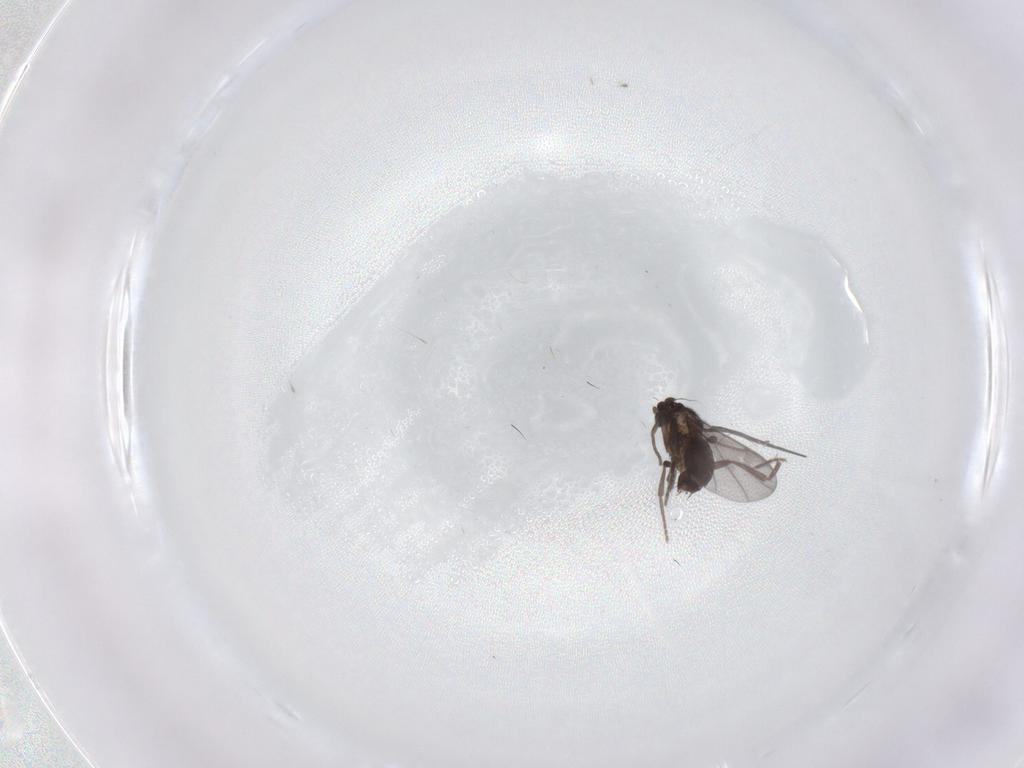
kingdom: Animalia
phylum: Arthropoda
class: Insecta
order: Diptera
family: Phoridae
